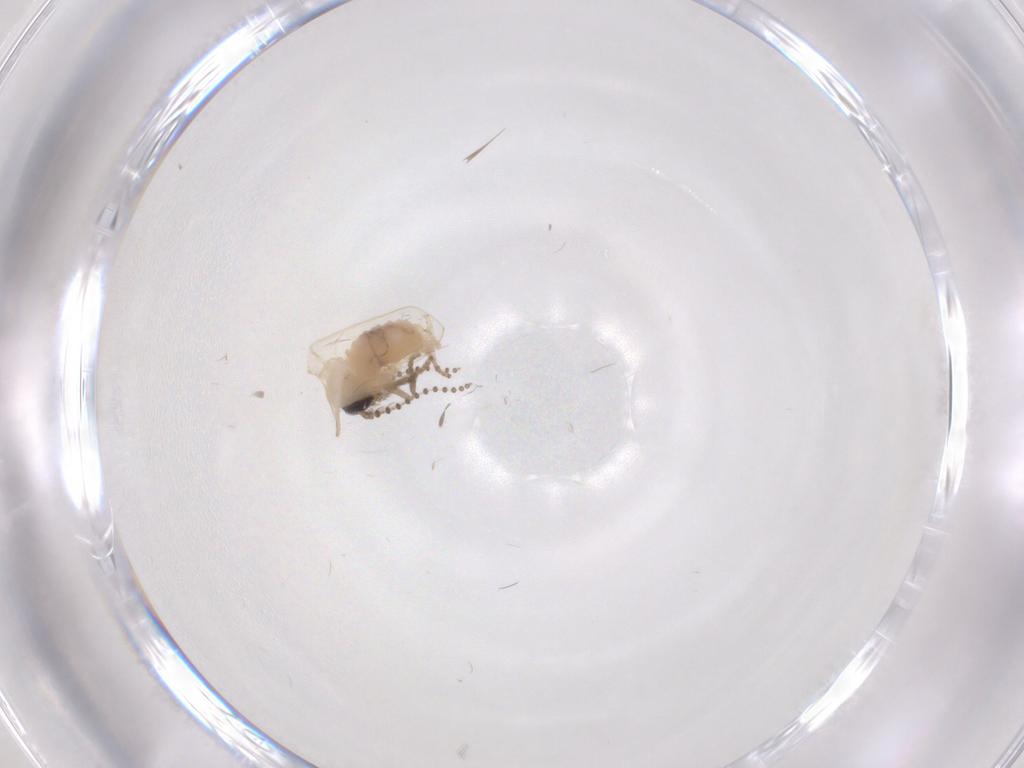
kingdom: Animalia
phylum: Arthropoda
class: Insecta
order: Diptera
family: Psychodidae
